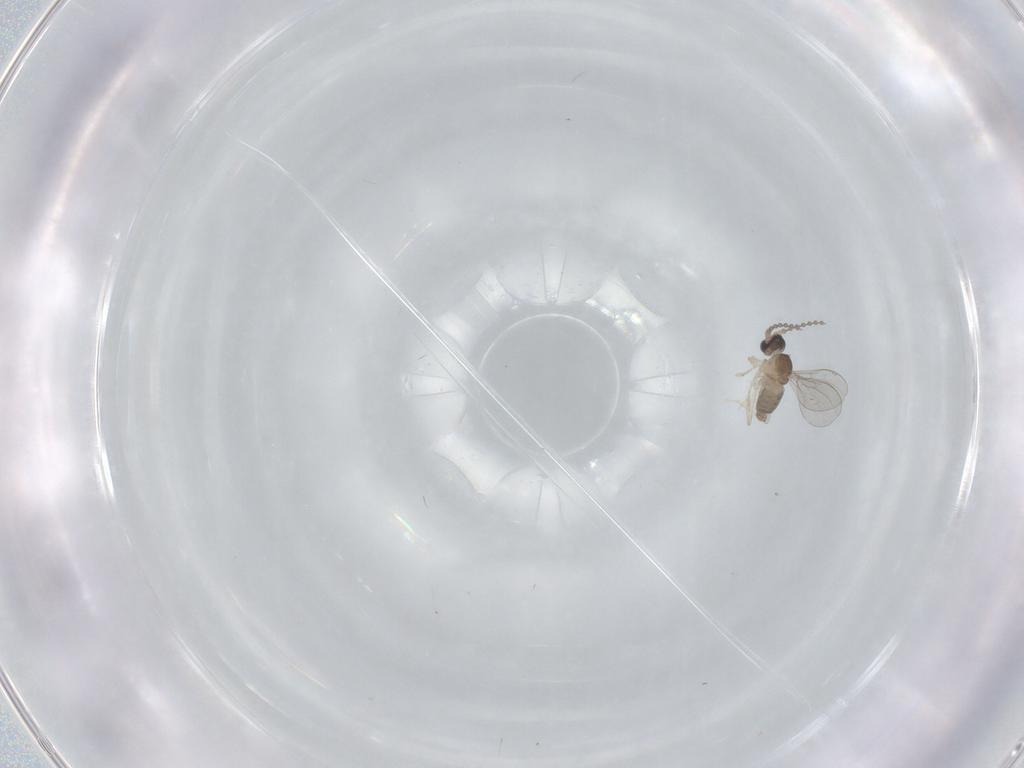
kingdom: Animalia
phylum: Arthropoda
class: Insecta
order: Diptera
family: Cecidomyiidae
